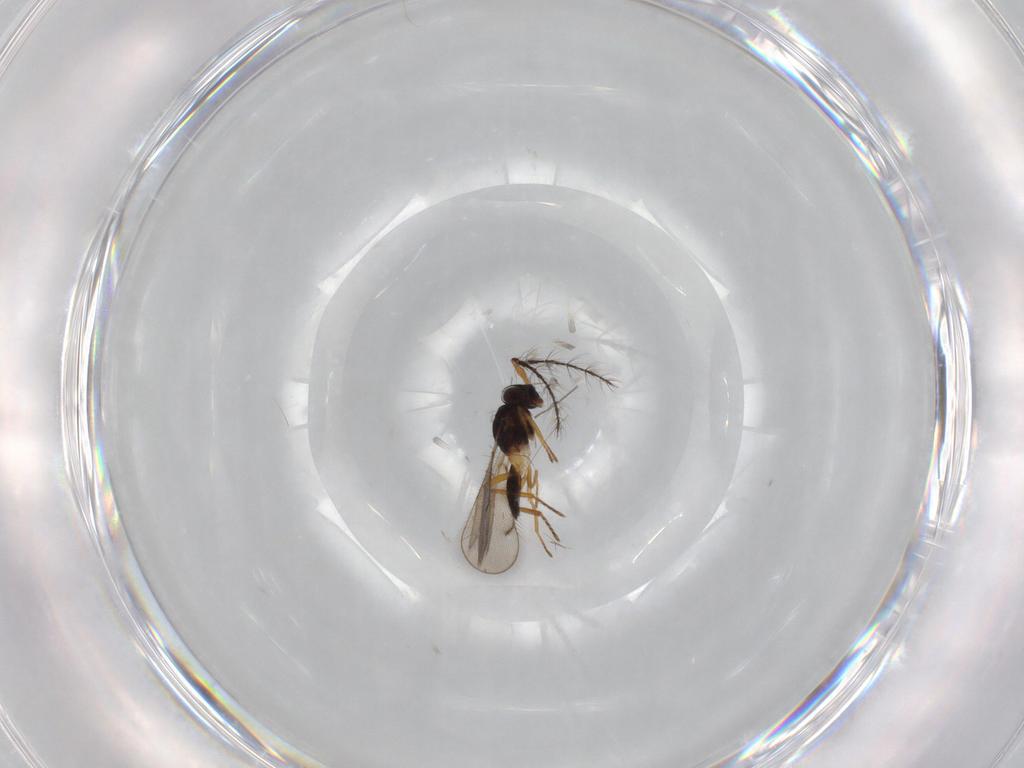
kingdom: Animalia
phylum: Arthropoda
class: Insecta
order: Hymenoptera
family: Eulophidae
